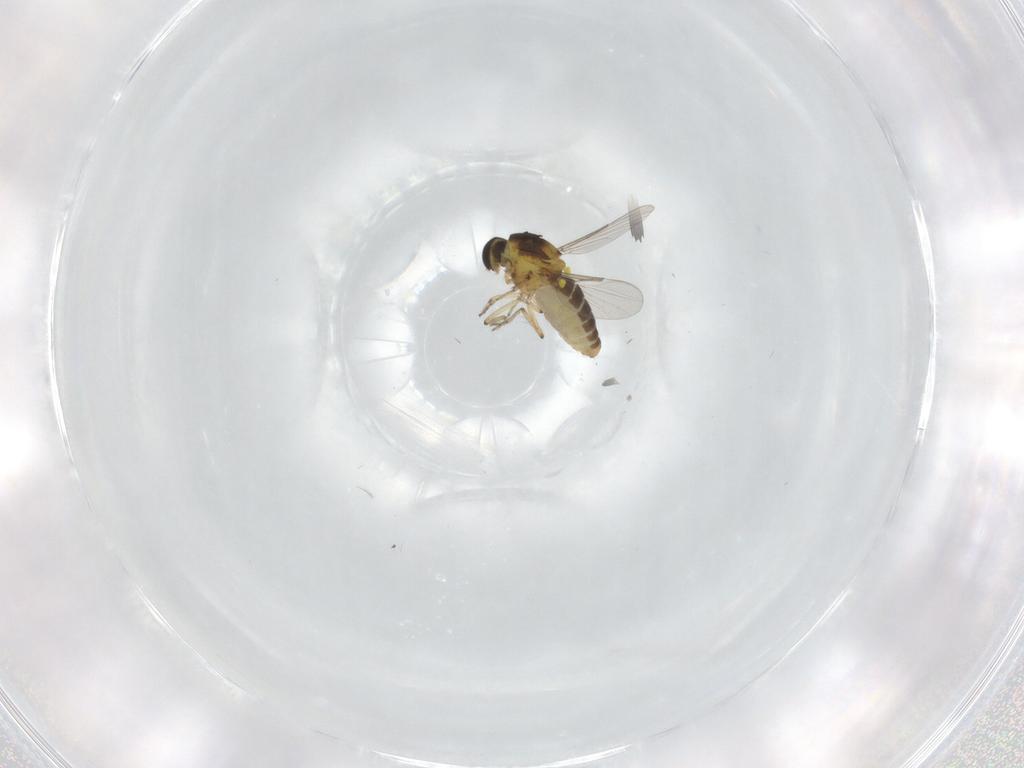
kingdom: Animalia
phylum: Arthropoda
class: Insecta
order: Diptera
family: Ceratopogonidae
